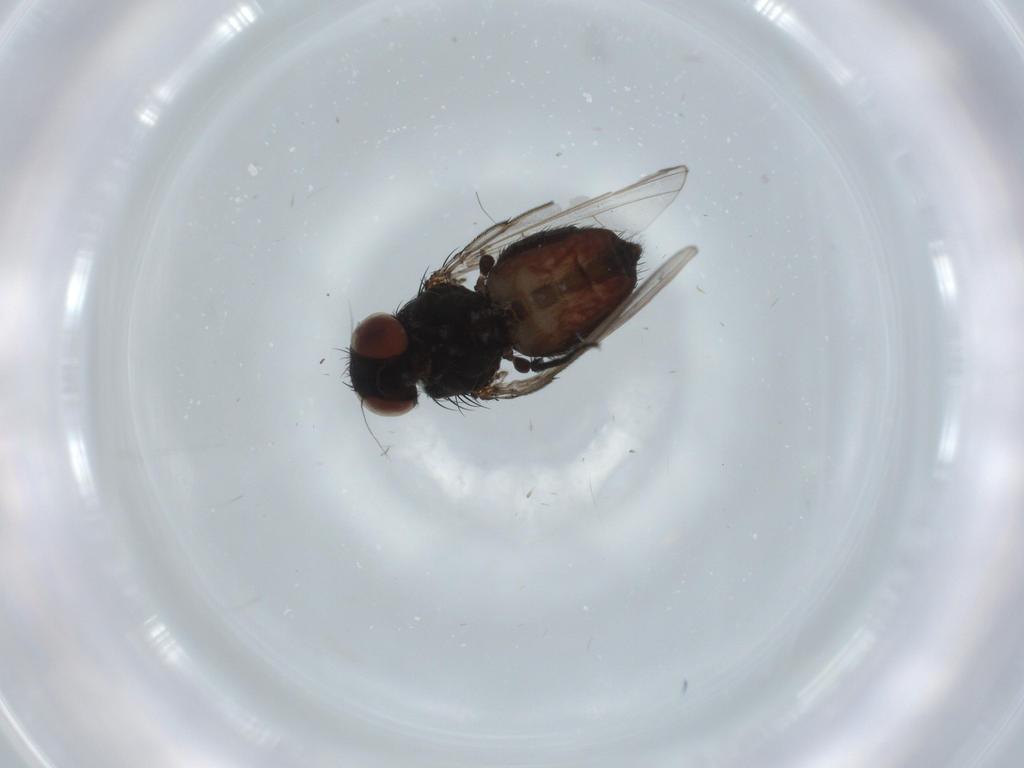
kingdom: Animalia
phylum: Arthropoda
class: Insecta
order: Diptera
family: Milichiidae
